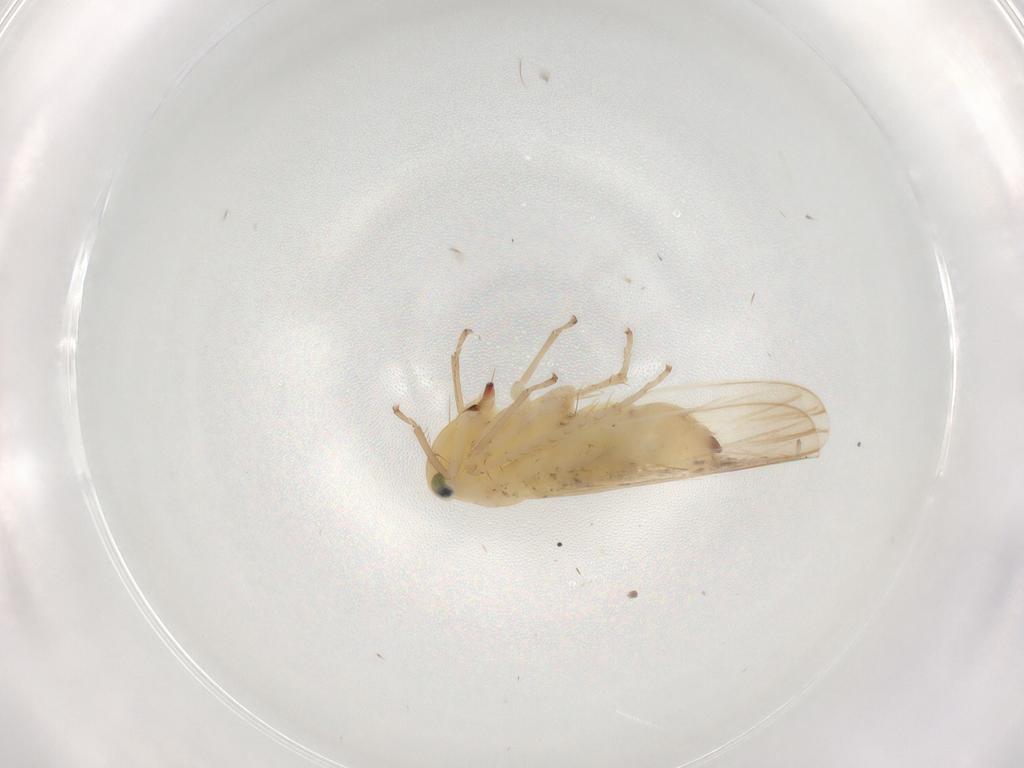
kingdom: Animalia
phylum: Arthropoda
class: Insecta
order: Hemiptera
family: Cicadellidae
